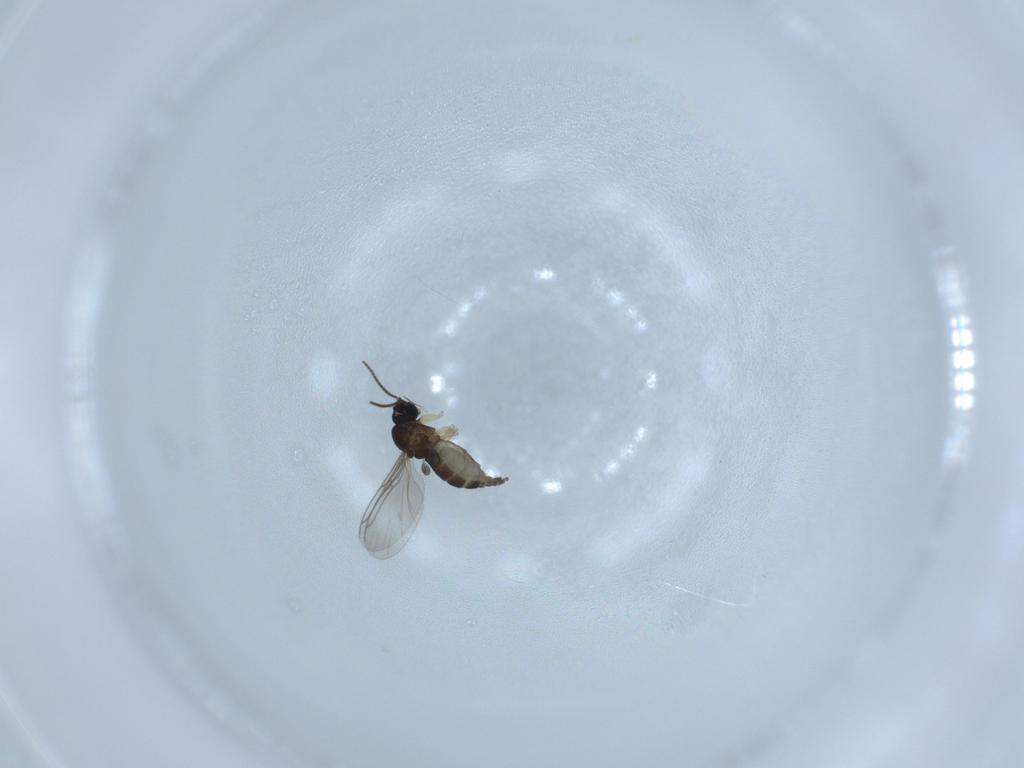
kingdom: Animalia
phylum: Arthropoda
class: Insecta
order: Diptera
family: Sciaridae
